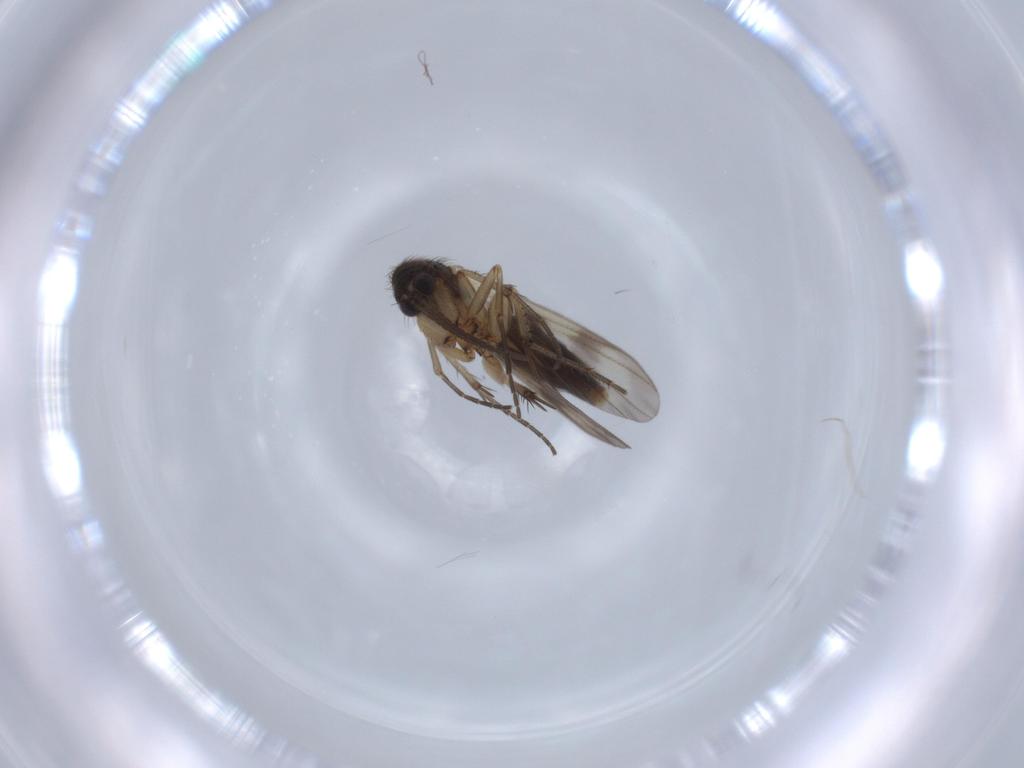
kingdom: Animalia
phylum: Arthropoda
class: Insecta
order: Diptera
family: Mycetophilidae
